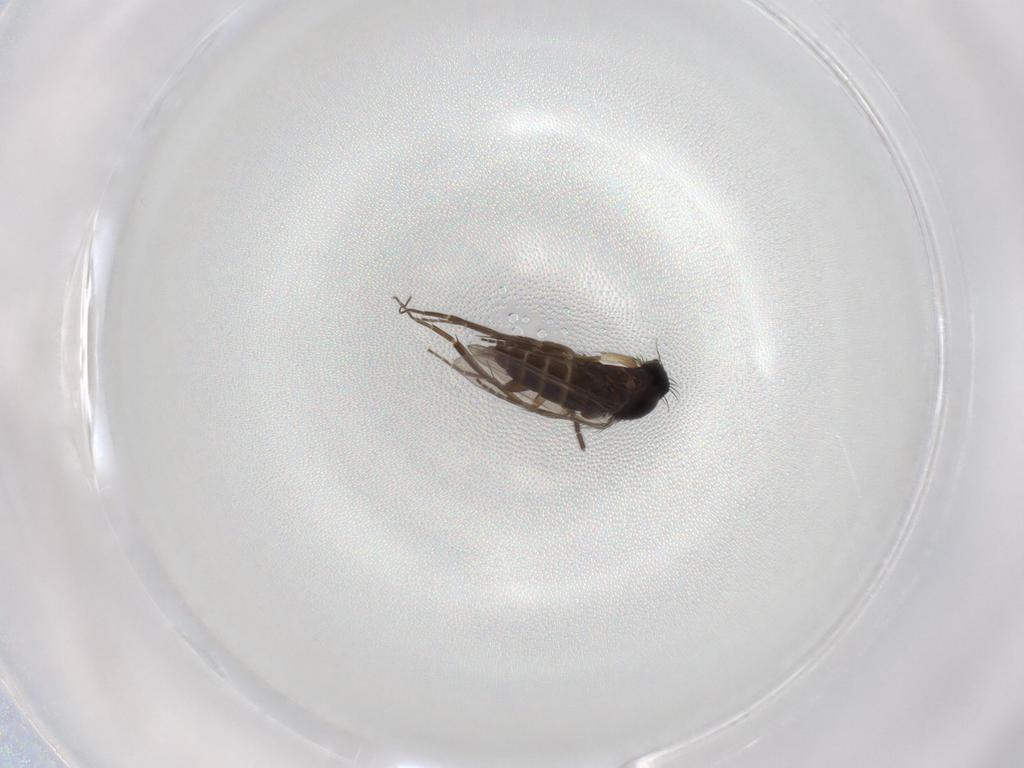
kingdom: Animalia
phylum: Arthropoda
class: Insecta
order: Diptera
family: Phoridae
